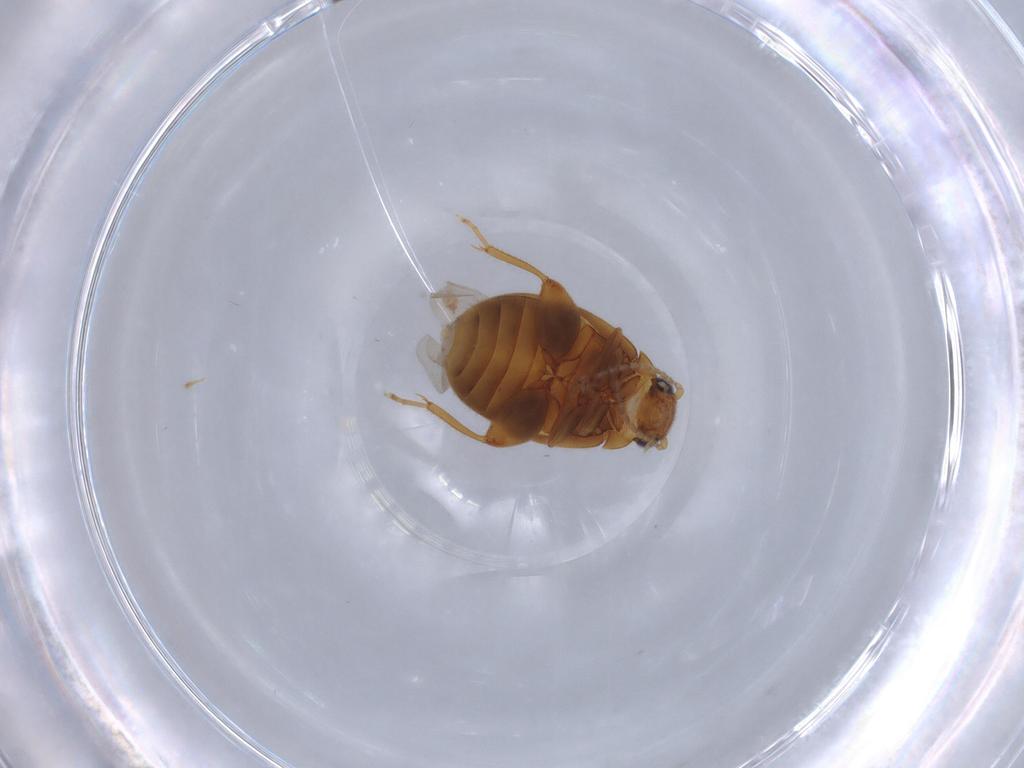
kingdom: Animalia
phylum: Arthropoda
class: Insecta
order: Coleoptera
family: Scirtidae
